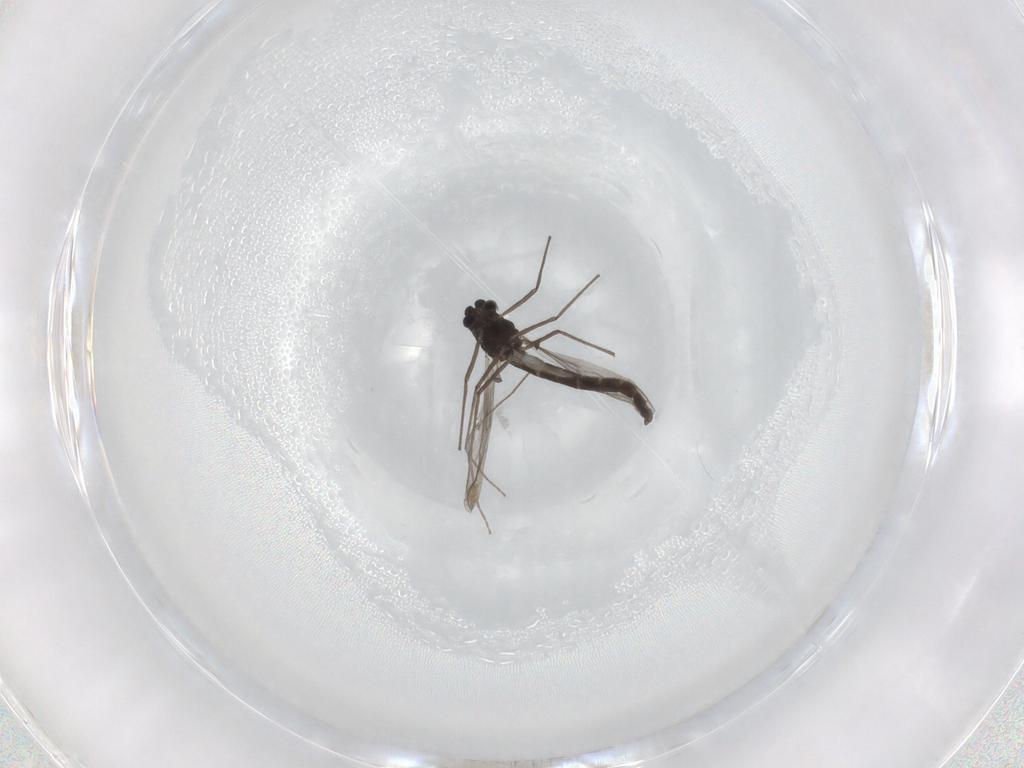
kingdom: Animalia
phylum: Arthropoda
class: Insecta
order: Diptera
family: Chironomidae
